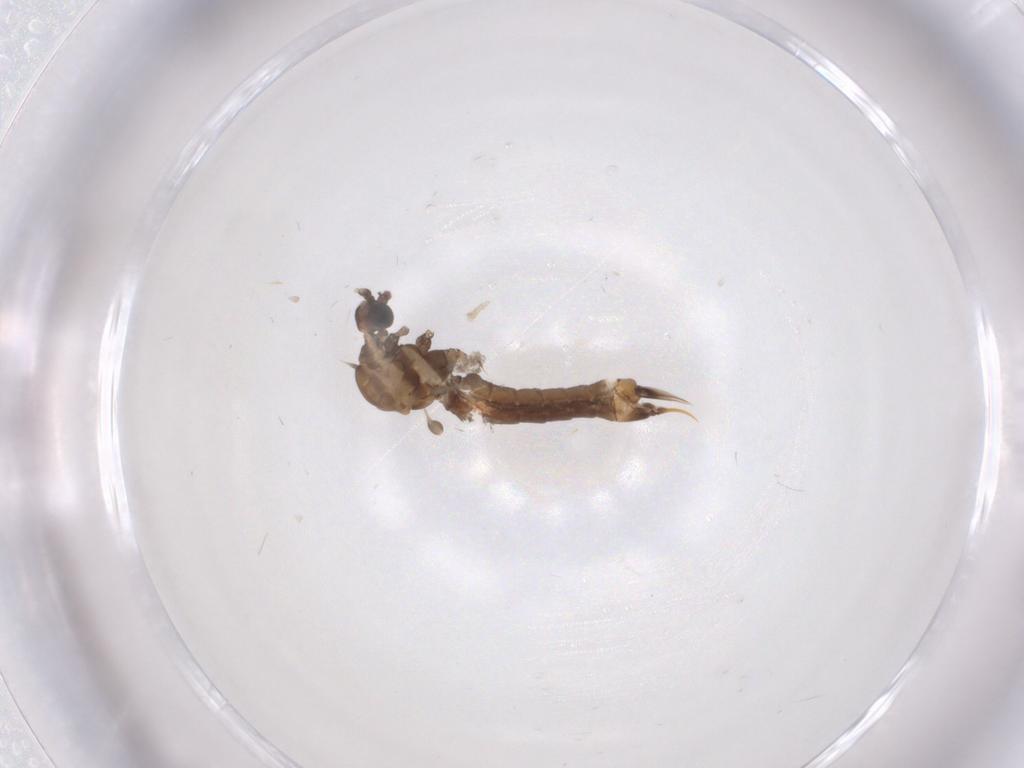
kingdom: Animalia
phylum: Arthropoda
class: Insecta
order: Diptera
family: Limoniidae
